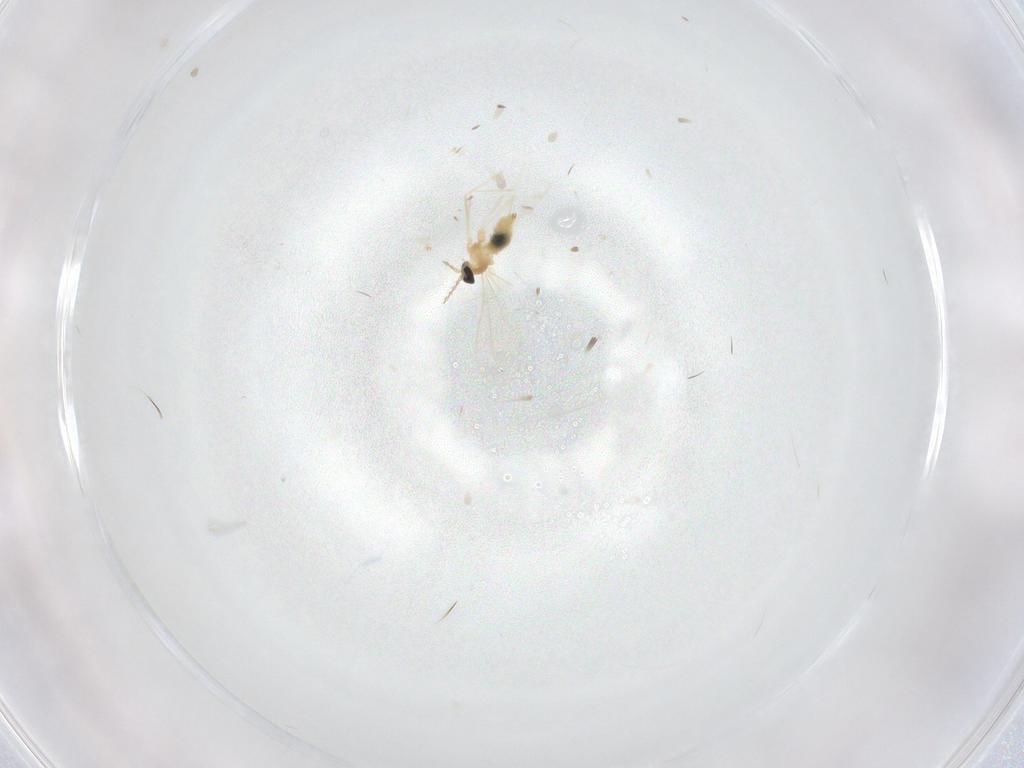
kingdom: Animalia
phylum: Arthropoda
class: Insecta
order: Diptera
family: Cecidomyiidae
